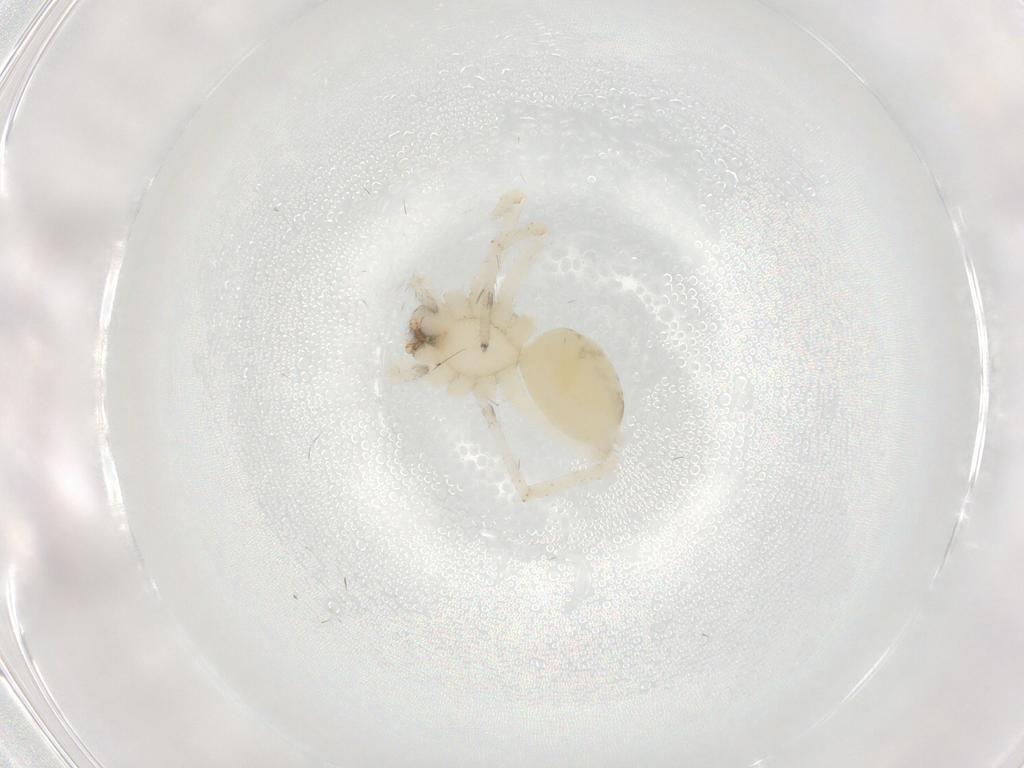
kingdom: Animalia
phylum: Arthropoda
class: Arachnida
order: Araneae
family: Anyphaenidae
